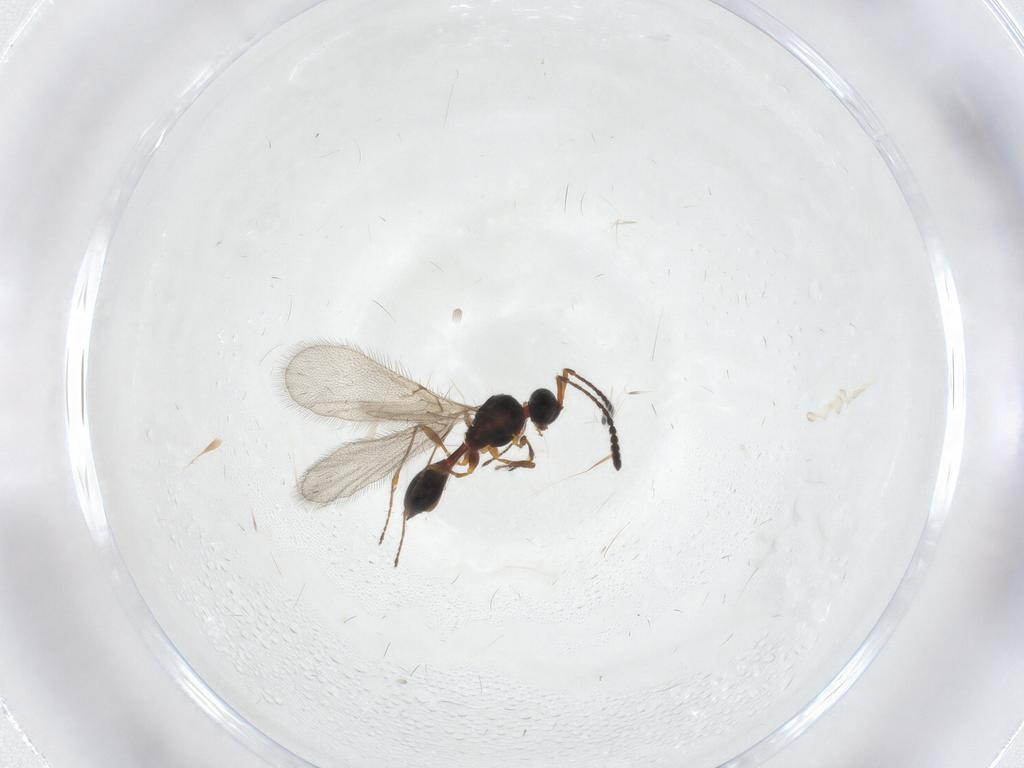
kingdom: Animalia
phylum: Arthropoda
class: Insecta
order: Hymenoptera
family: Diapriidae
